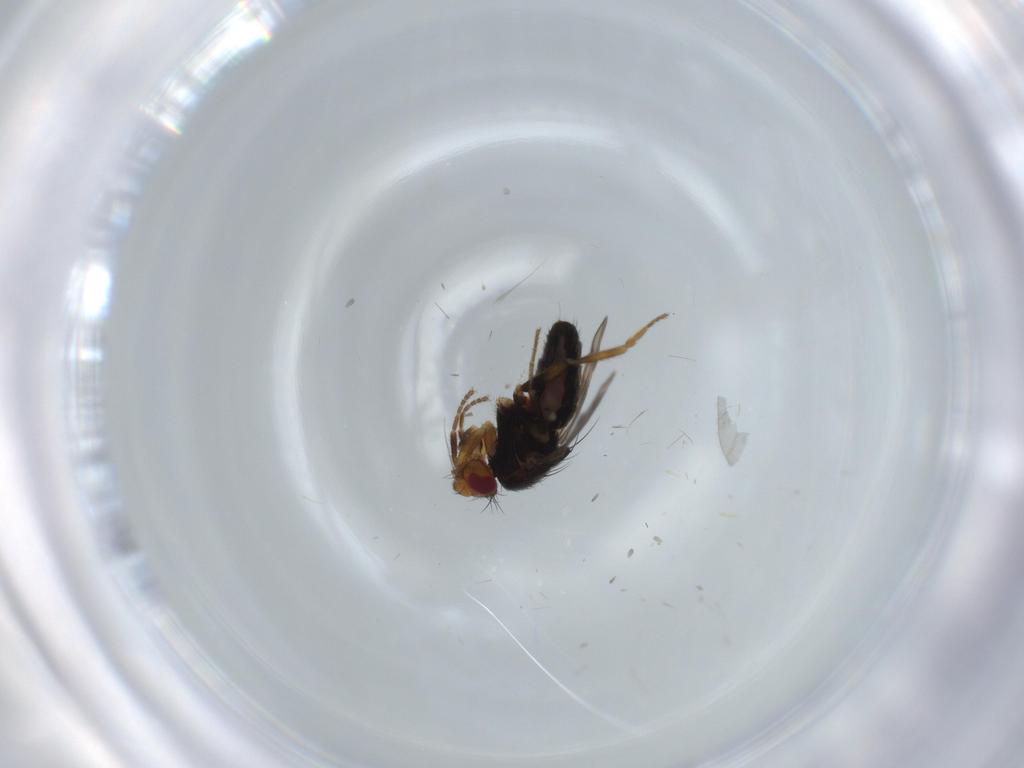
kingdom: Animalia
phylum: Arthropoda
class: Insecta
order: Diptera
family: Sphaeroceridae
